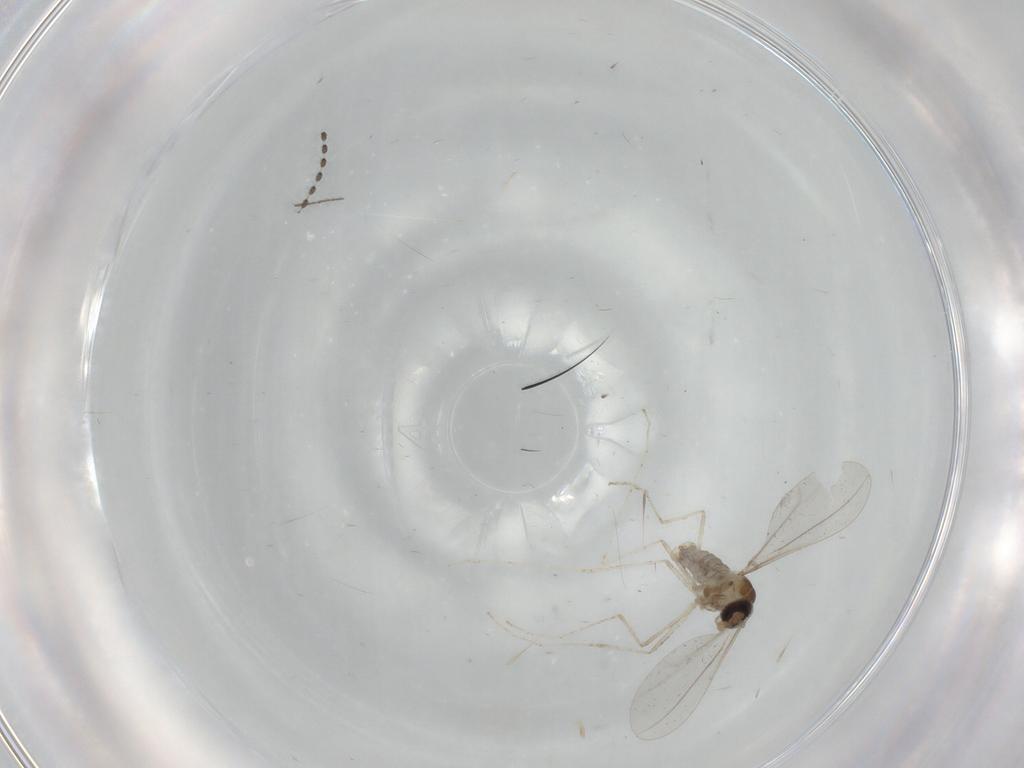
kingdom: Animalia
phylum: Arthropoda
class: Insecta
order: Diptera
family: Cecidomyiidae
